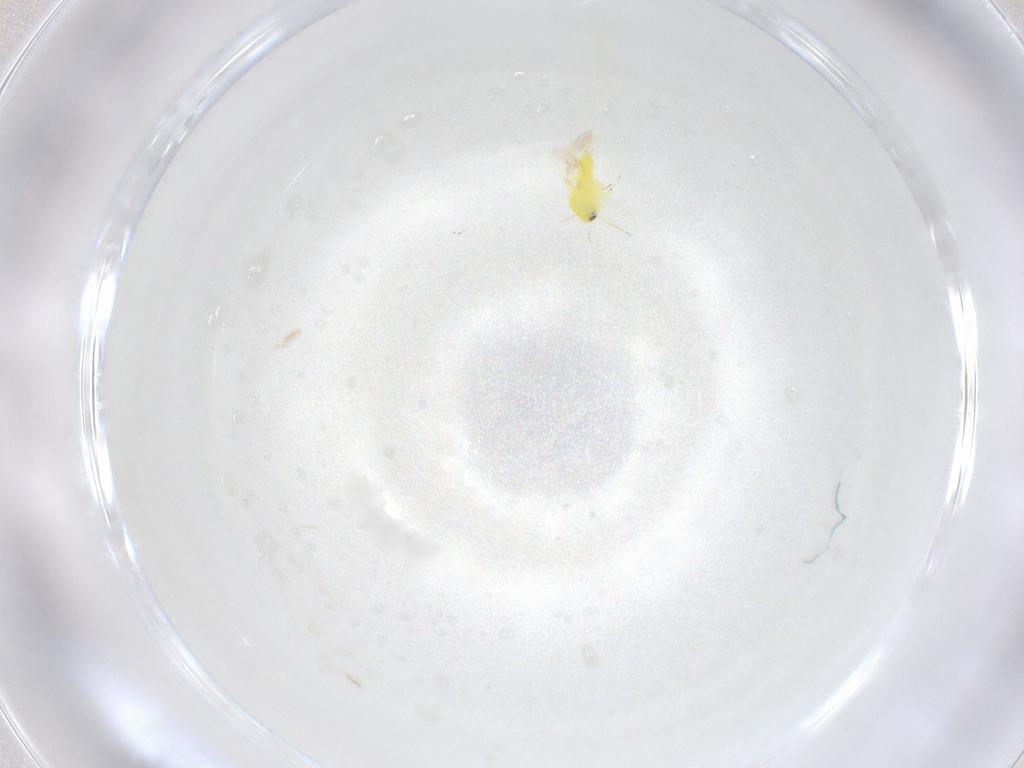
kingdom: Animalia
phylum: Arthropoda
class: Insecta
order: Hemiptera
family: Aleyrodidae
